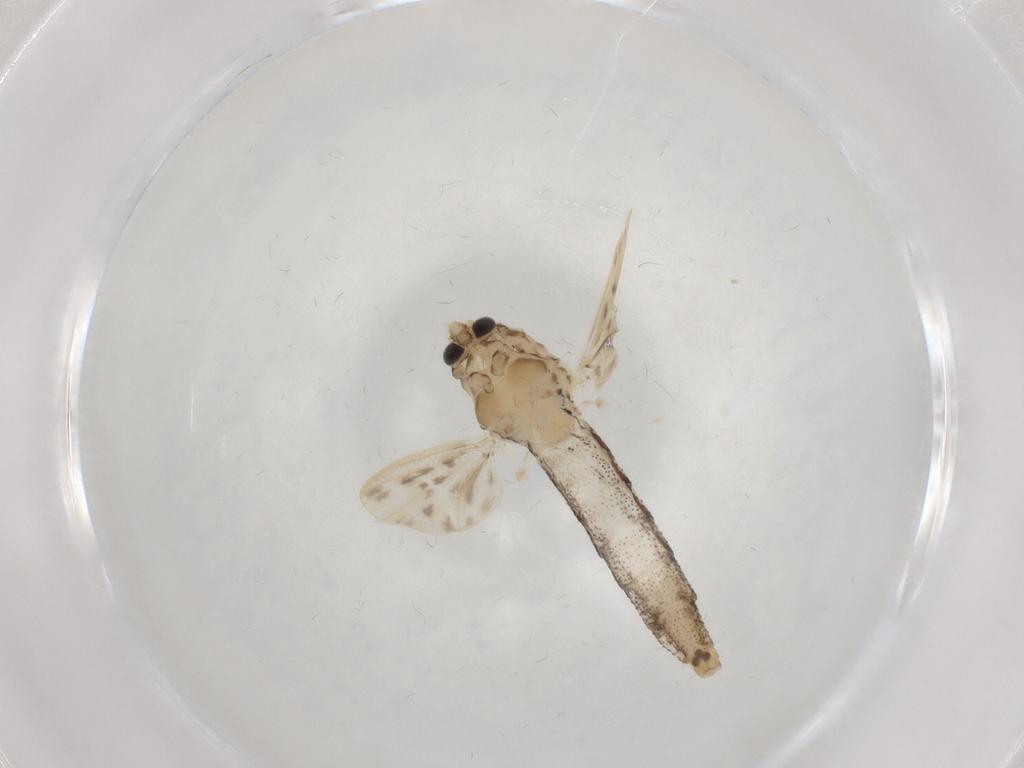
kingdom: Animalia
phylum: Arthropoda
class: Insecta
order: Diptera
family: Chaoboridae
